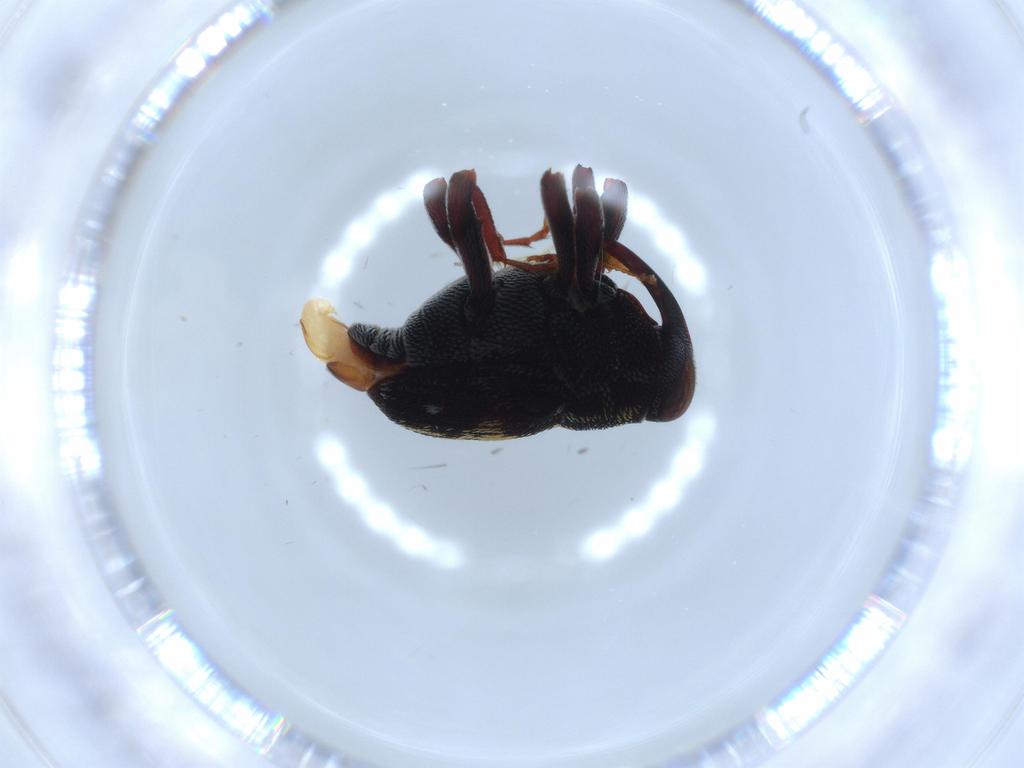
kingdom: Animalia
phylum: Arthropoda
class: Insecta
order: Coleoptera
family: Chrysomelidae
